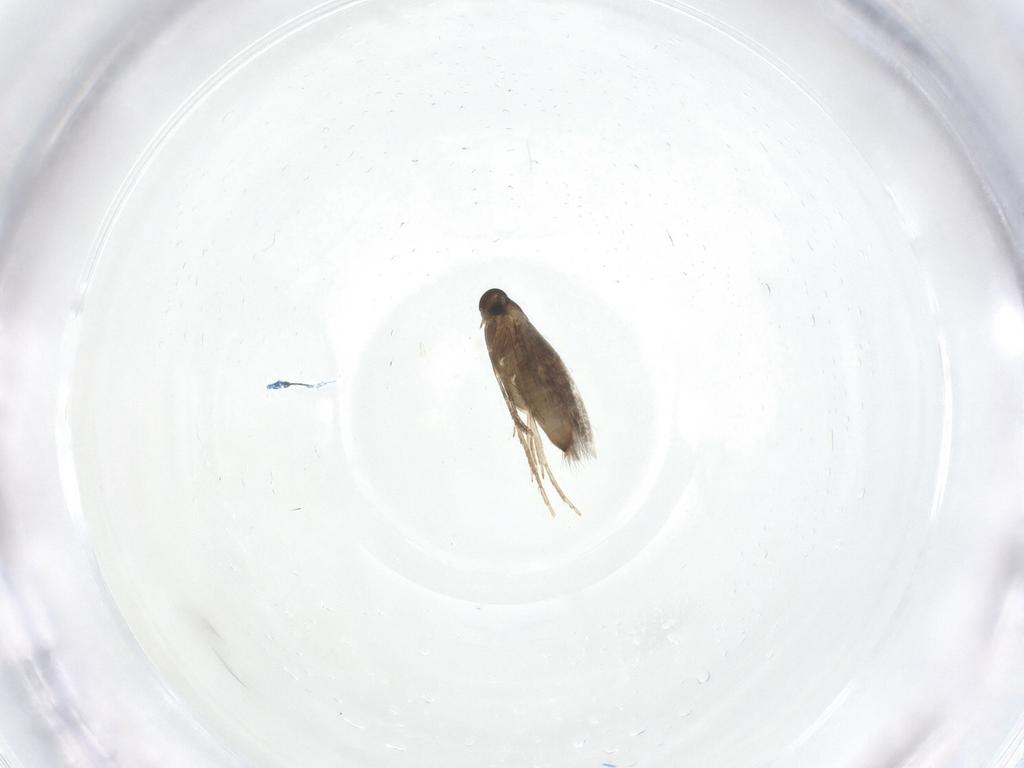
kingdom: Animalia
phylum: Arthropoda
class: Insecta
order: Lepidoptera
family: Heliozelidae
